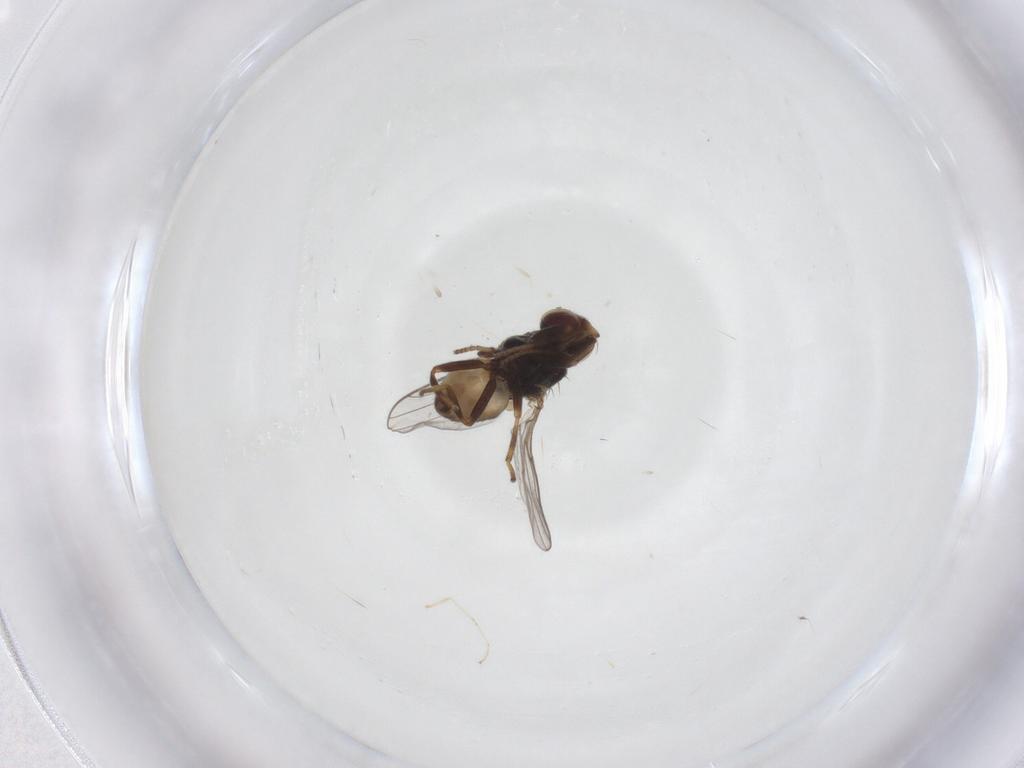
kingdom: Animalia
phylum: Arthropoda
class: Insecta
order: Diptera
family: Chloropidae
